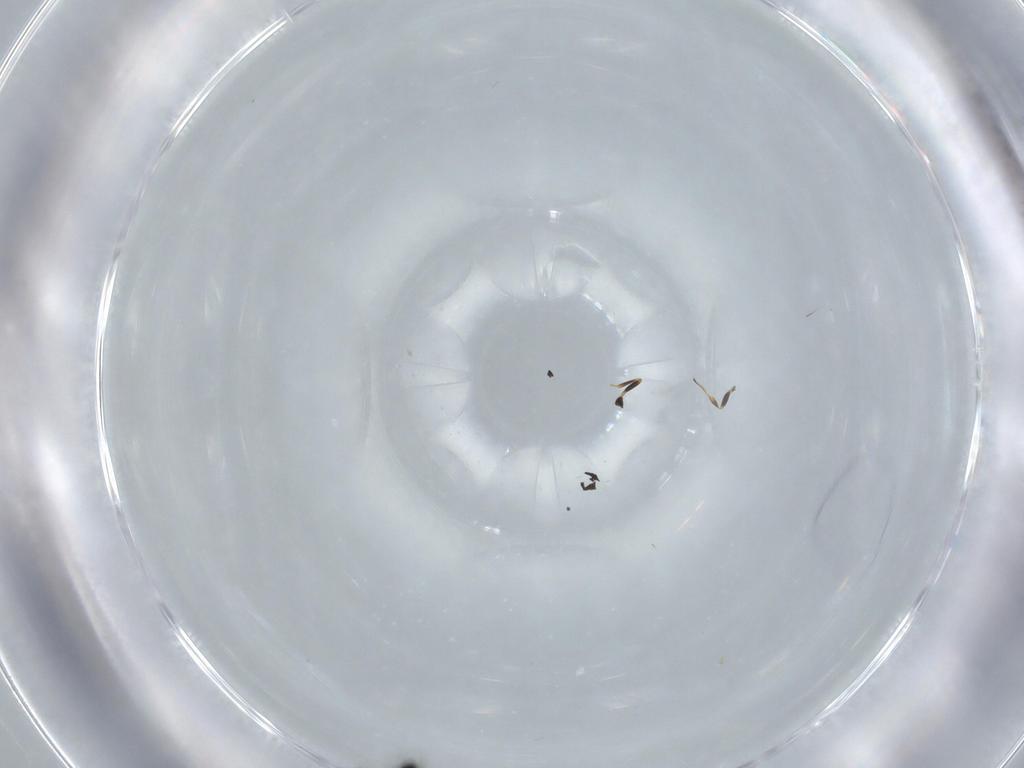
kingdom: Animalia
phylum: Arthropoda
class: Insecta
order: Hymenoptera
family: Scelionidae
